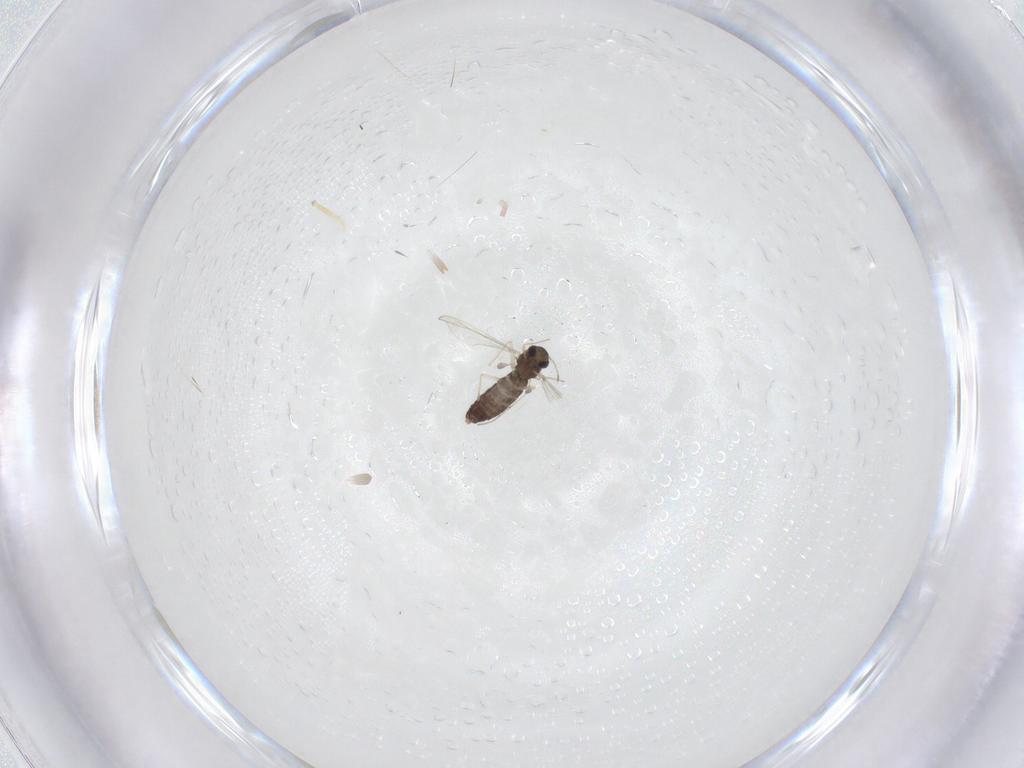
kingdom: Animalia
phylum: Arthropoda
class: Insecta
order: Diptera
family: Chironomidae
